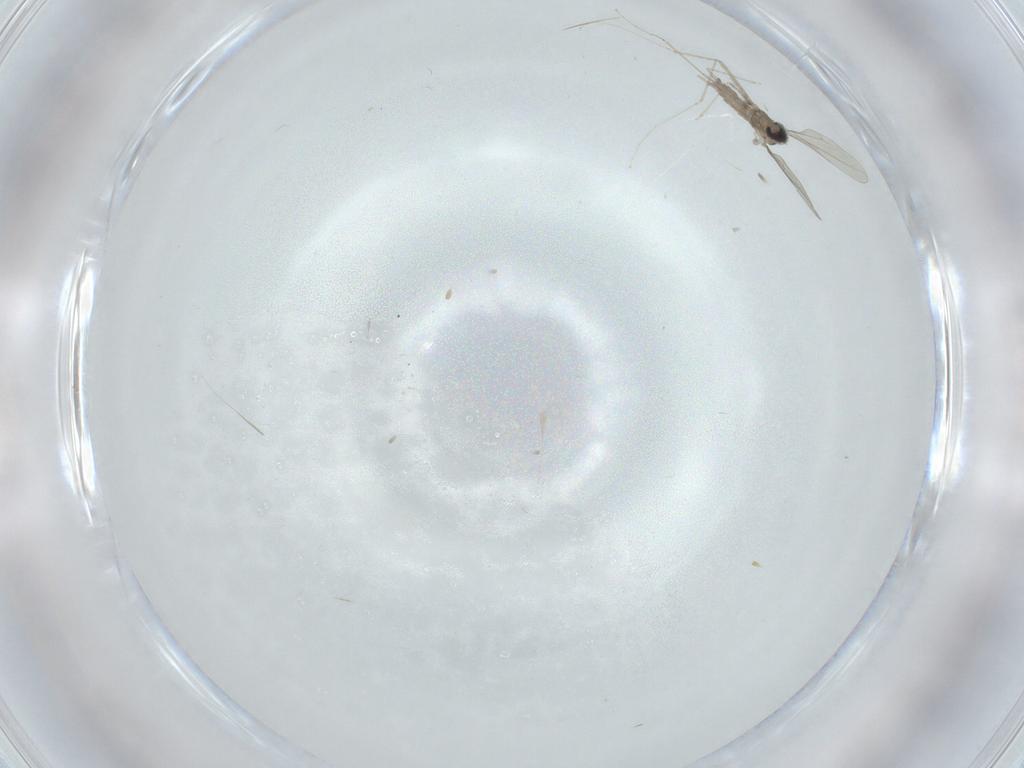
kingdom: Animalia
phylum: Arthropoda
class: Insecta
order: Diptera
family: Cecidomyiidae
